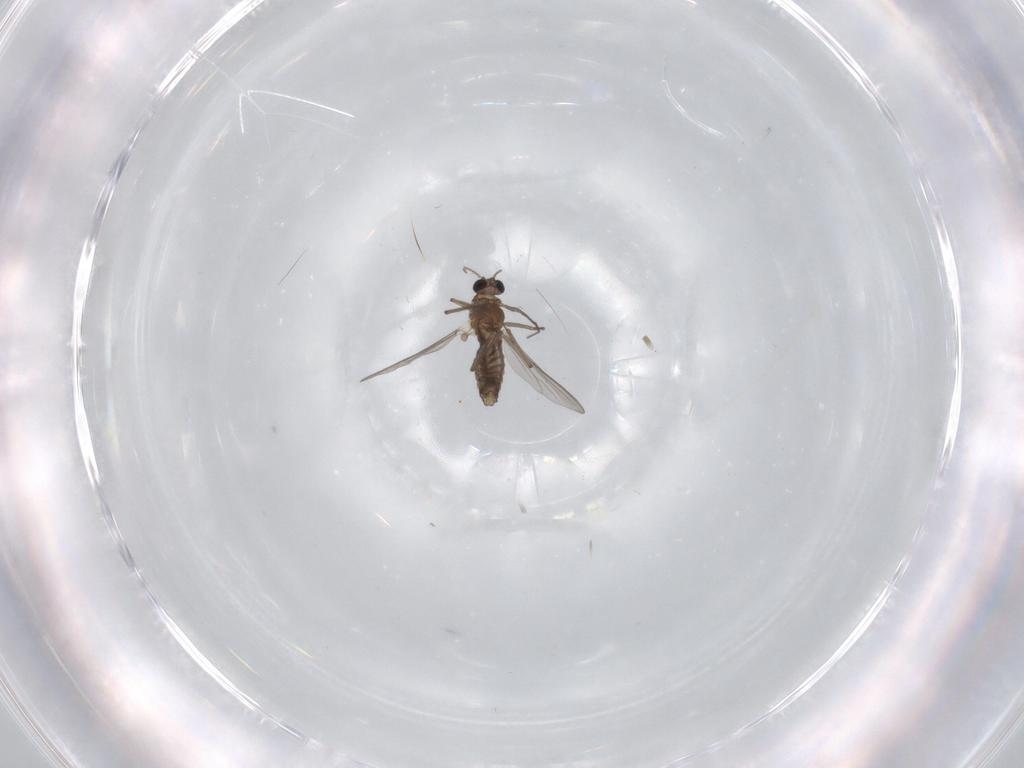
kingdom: Animalia
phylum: Arthropoda
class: Insecta
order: Diptera
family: Chironomidae
